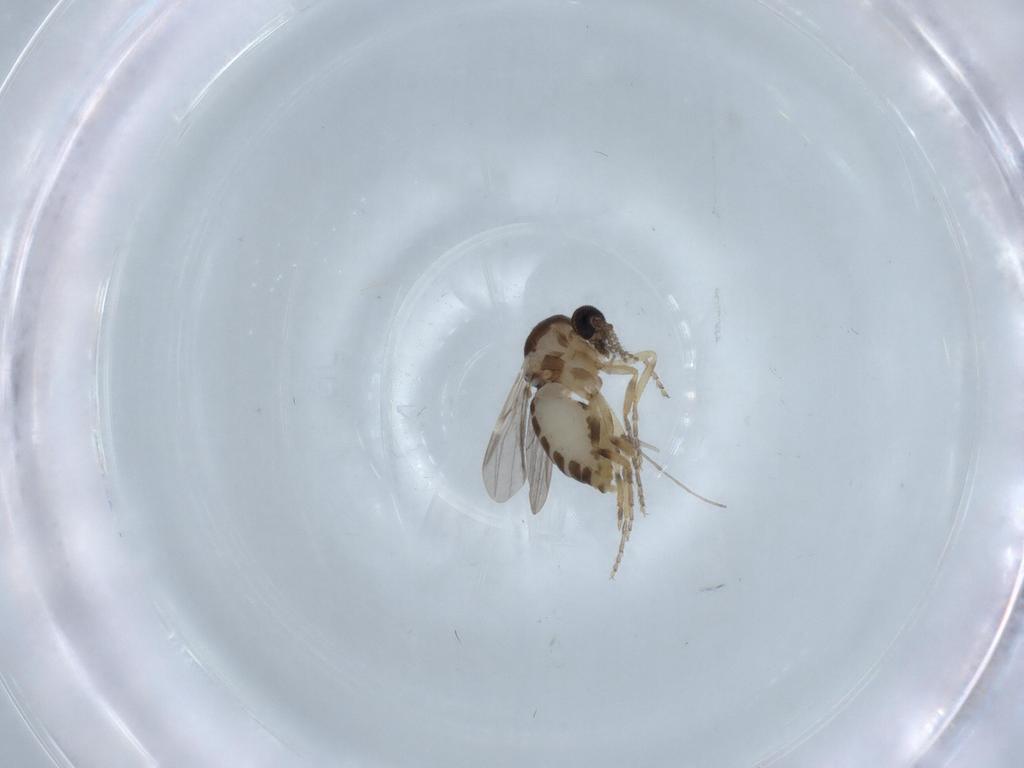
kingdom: Animalia
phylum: Arthropoda
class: Insecta
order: Diptera
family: Ceratopogonidae
